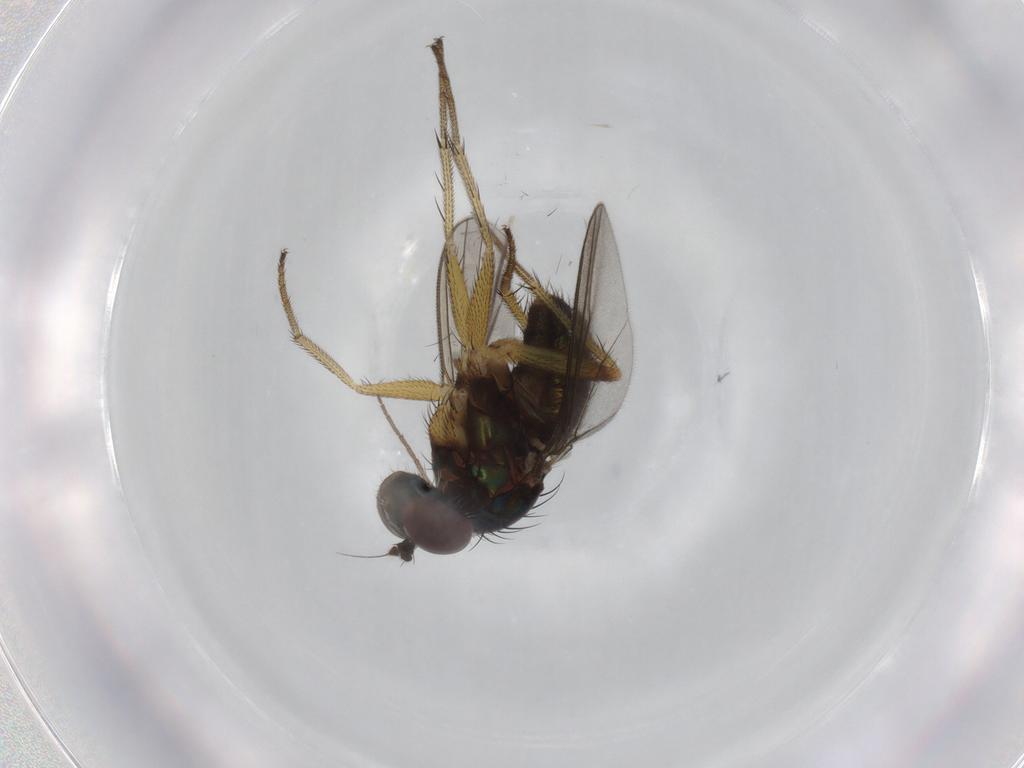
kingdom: Animalia
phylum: Arthropoda
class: Insecta
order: Diptera
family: Dolichopodidae
